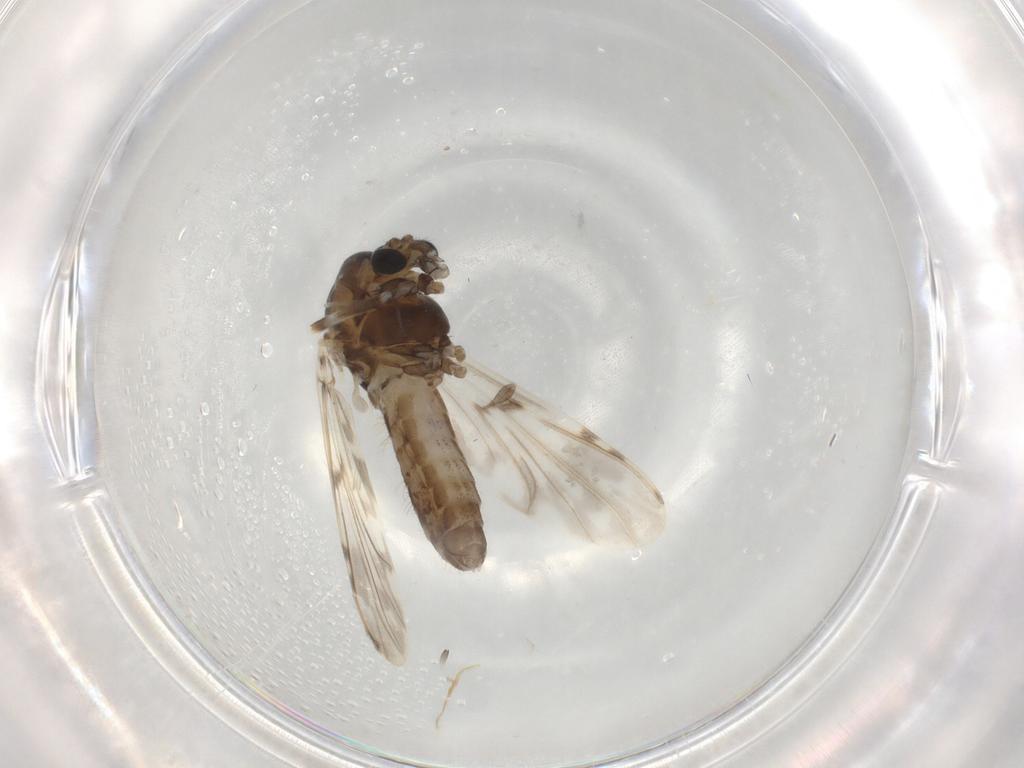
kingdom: Animalia
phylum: Arthropoda
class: Insecta
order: Diptera
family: Chironomidae
